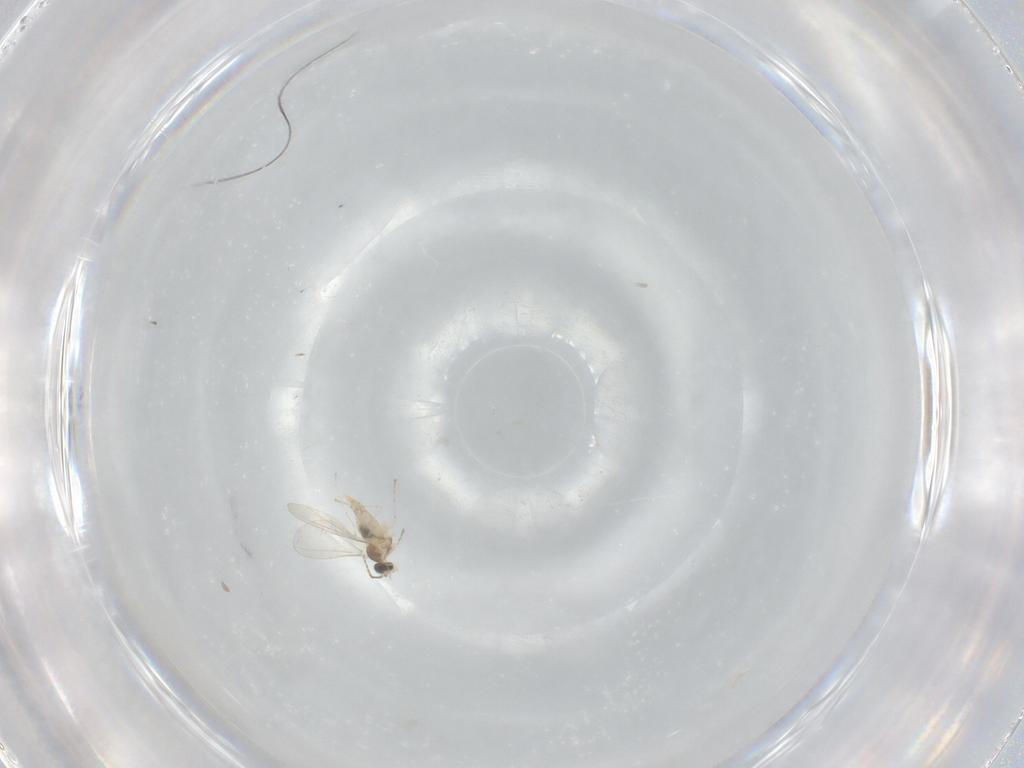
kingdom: Animalia
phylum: Arthropoda
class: Insecta
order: Diptera
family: Cecidomyiidae
